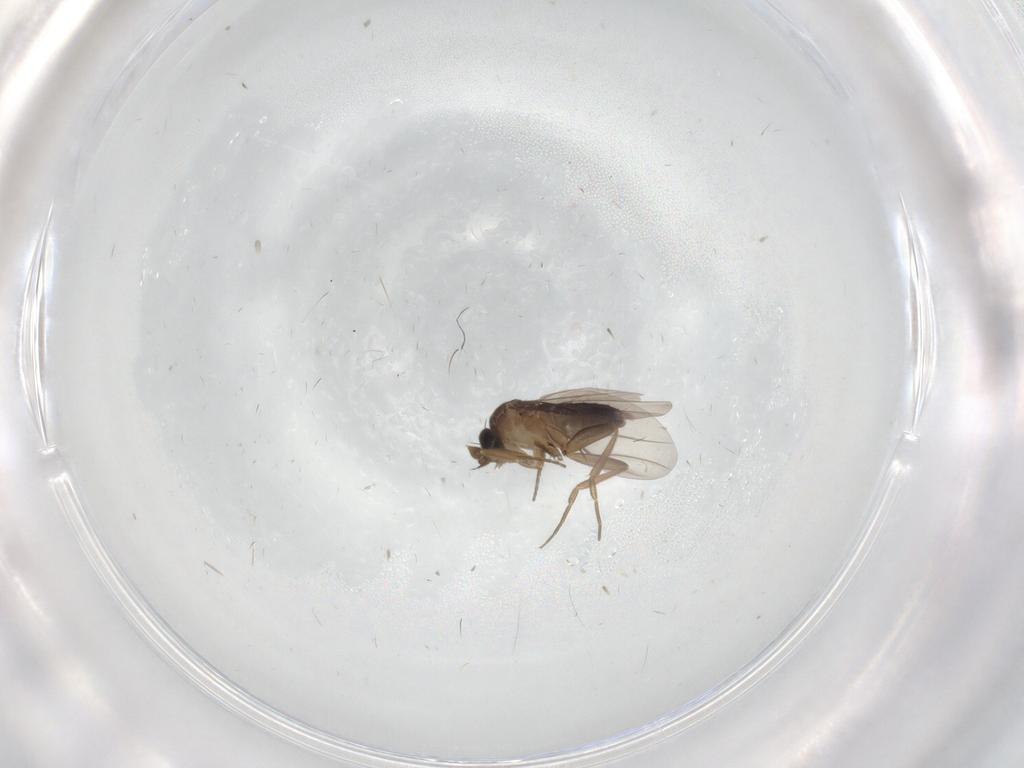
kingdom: Animalia
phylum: Arthropoda
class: Insecta
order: Diptera
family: Phoridae
